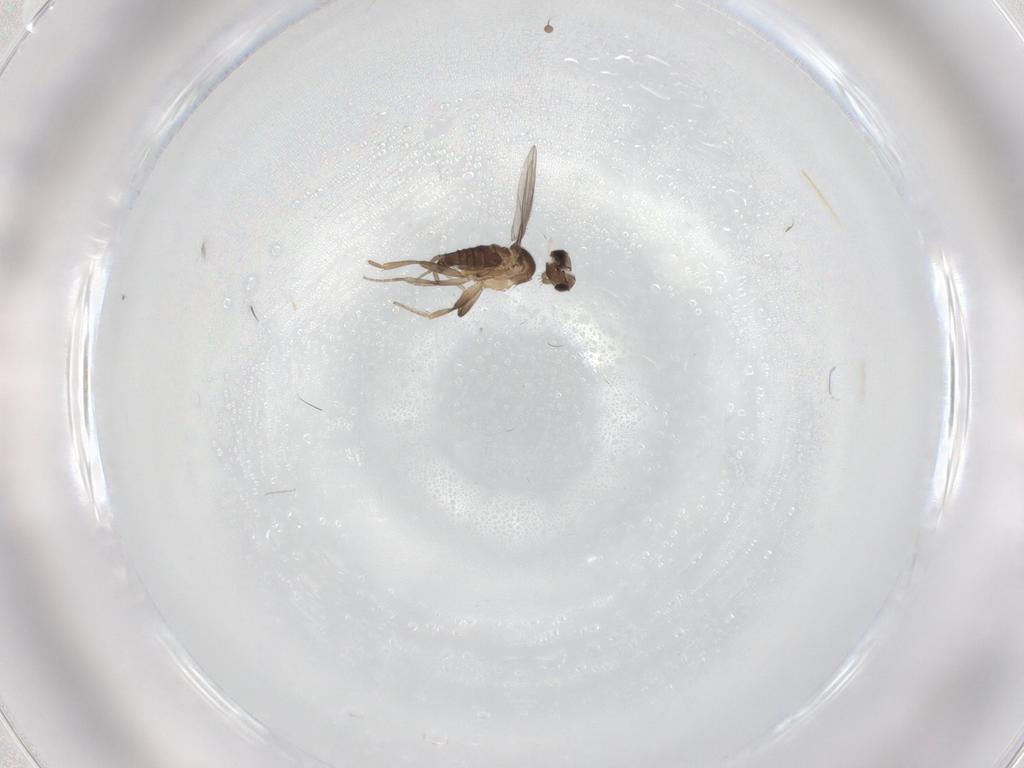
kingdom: Animalia
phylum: Arthropoda
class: Insecta
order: Diptera
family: Phoridae
